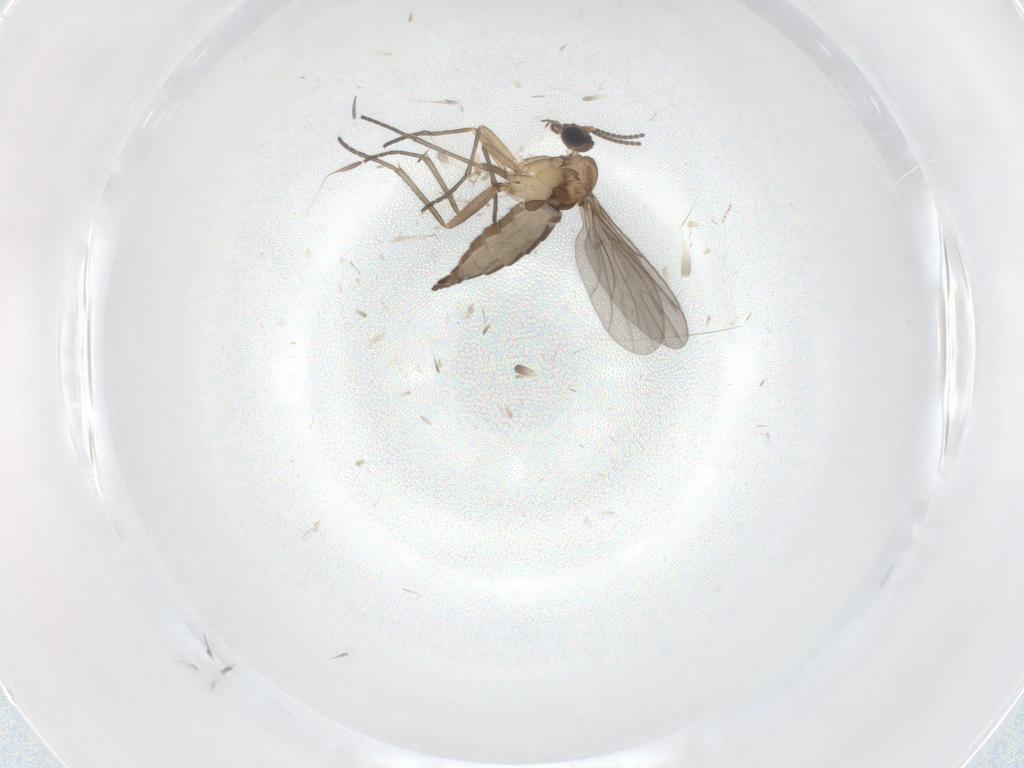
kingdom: Animalia
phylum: Arthropoda
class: Insecta
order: Diptera
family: Sciaridae
